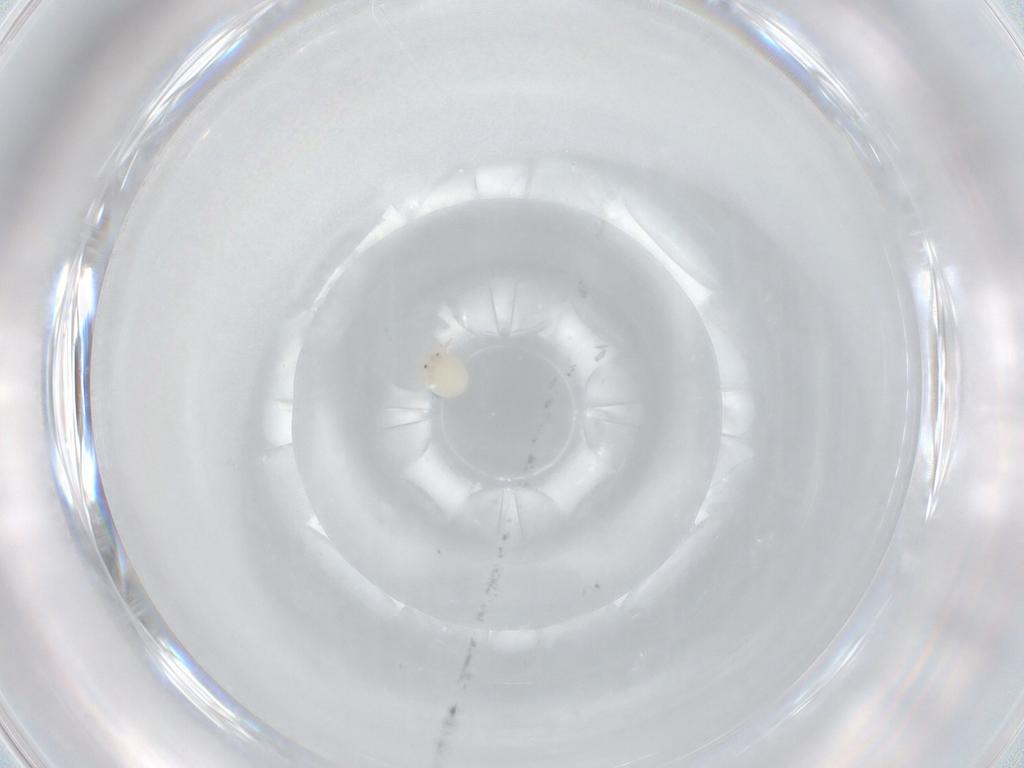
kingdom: Animalia
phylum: Arthropoda
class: Arachnida
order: Trombidiformes
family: Arrenuridae
